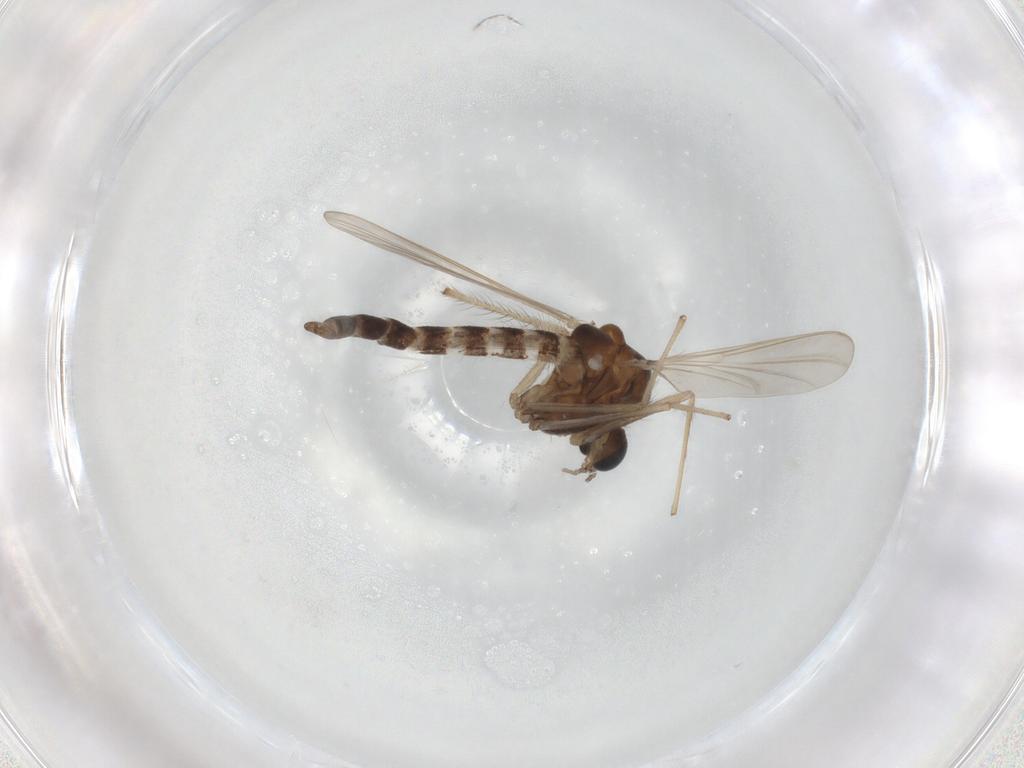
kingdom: Animalia
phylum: Arthropoda
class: Insecta
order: Diptera
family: Chironomidae
